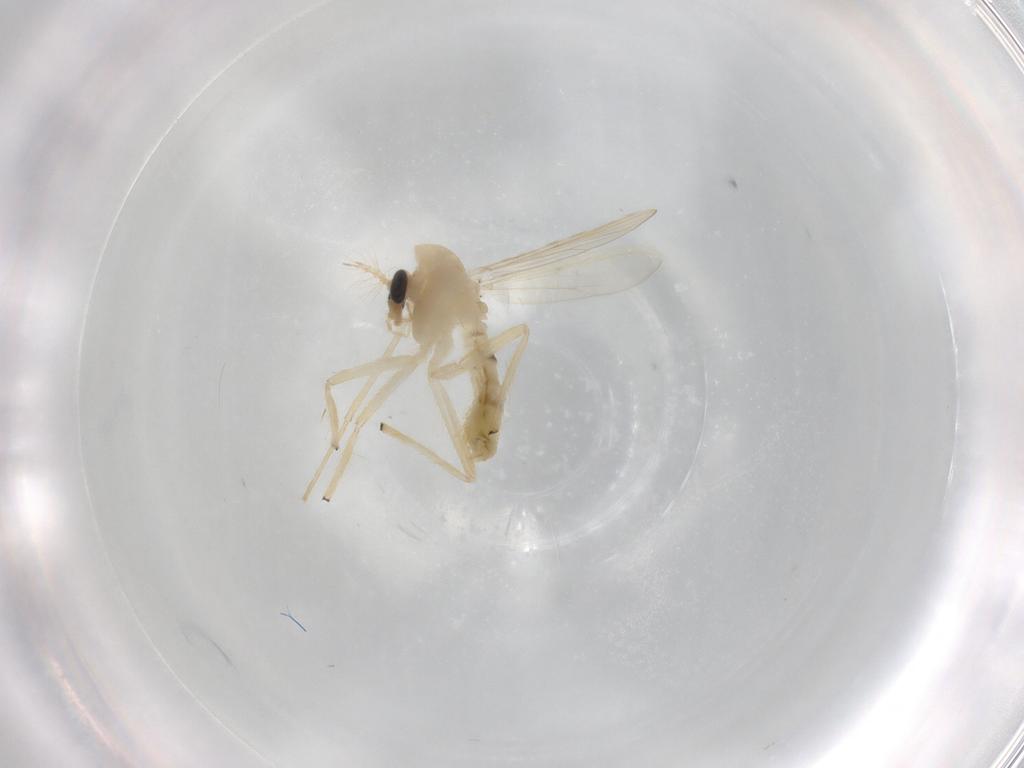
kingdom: Animalia
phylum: Arthropoda
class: Insecta
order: Diptera
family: Chironomidae
